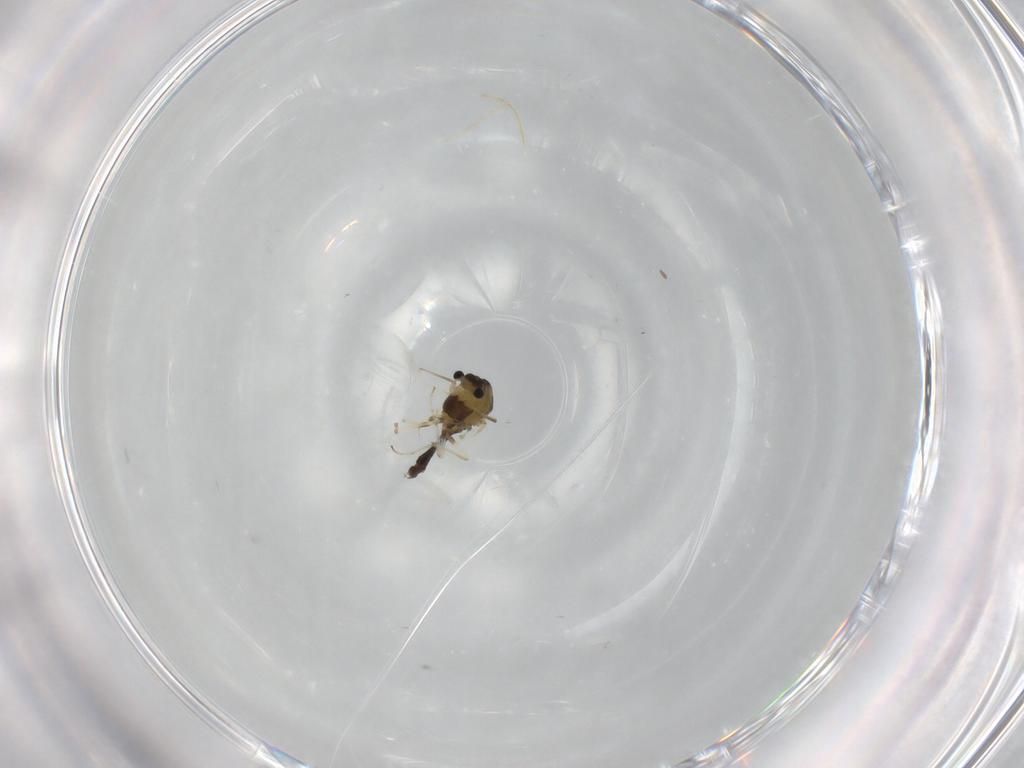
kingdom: Animalia
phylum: Arthropoda
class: Insecta
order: Diptera
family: Chironomidae
